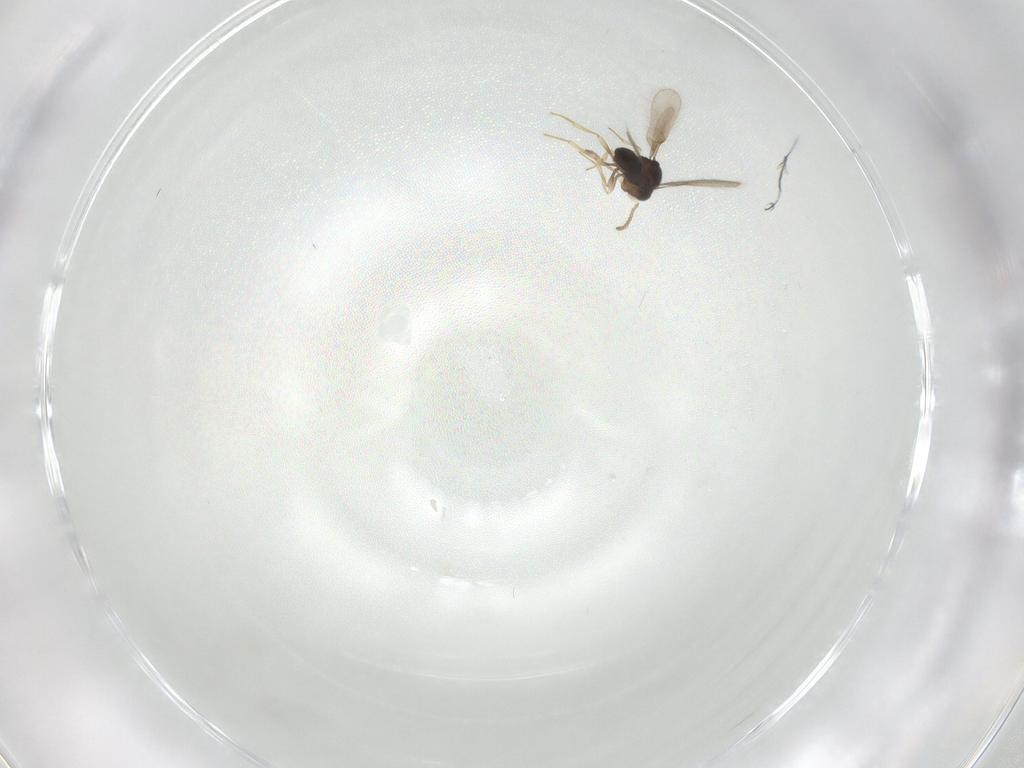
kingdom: Animalia
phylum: Arthropoda
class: Insecta
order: Hymenoptera
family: Scelionidae
